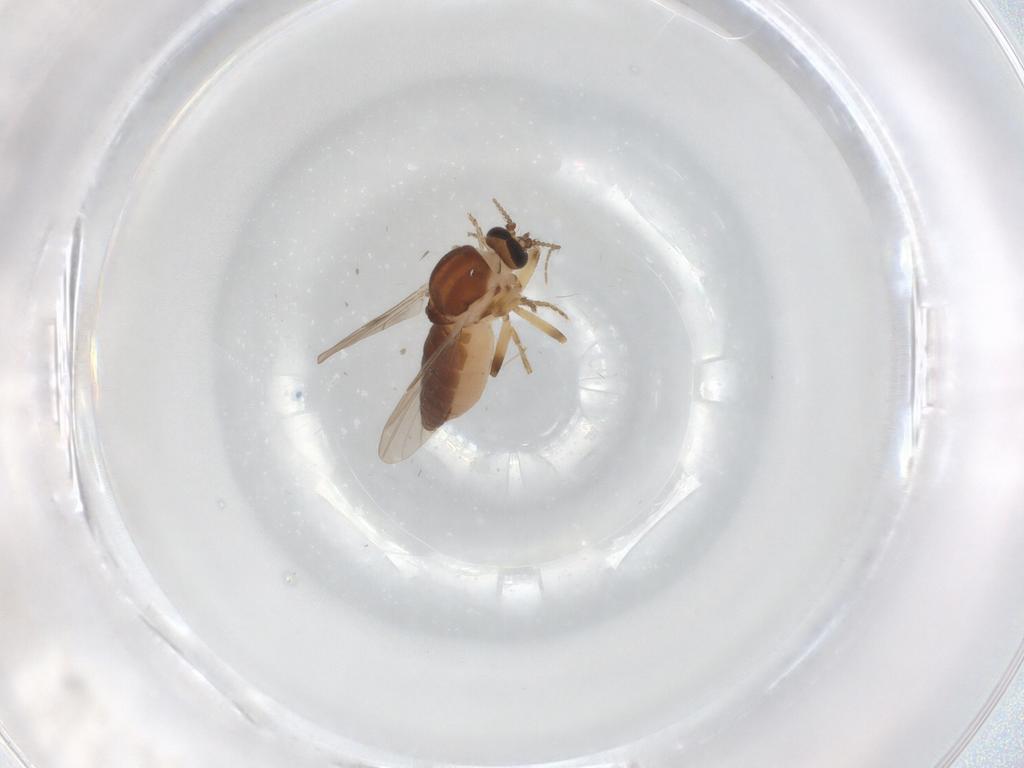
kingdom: Animalia
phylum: Arthropoda
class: Insecta
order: Diptera
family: Ceratopogonidae
